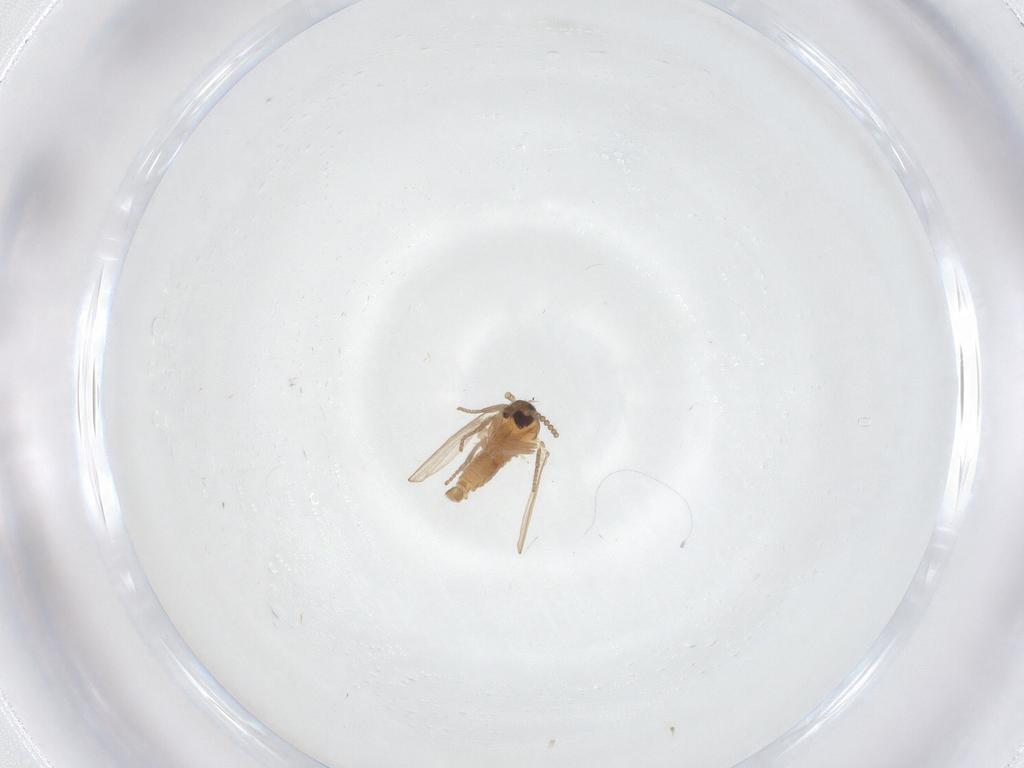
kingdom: Animalia
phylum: Arthropoda
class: Insecta
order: Diptera
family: Psychodidae
